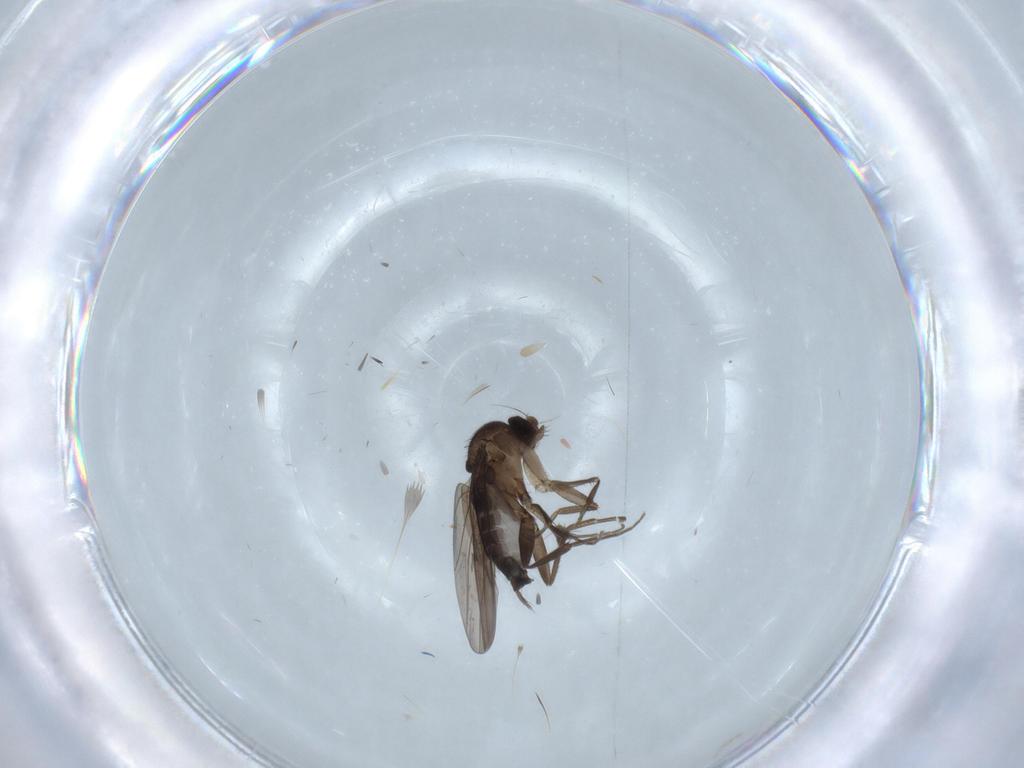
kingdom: Animalia
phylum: Arthropoda
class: Insecta
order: Diptera
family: Phoridae
